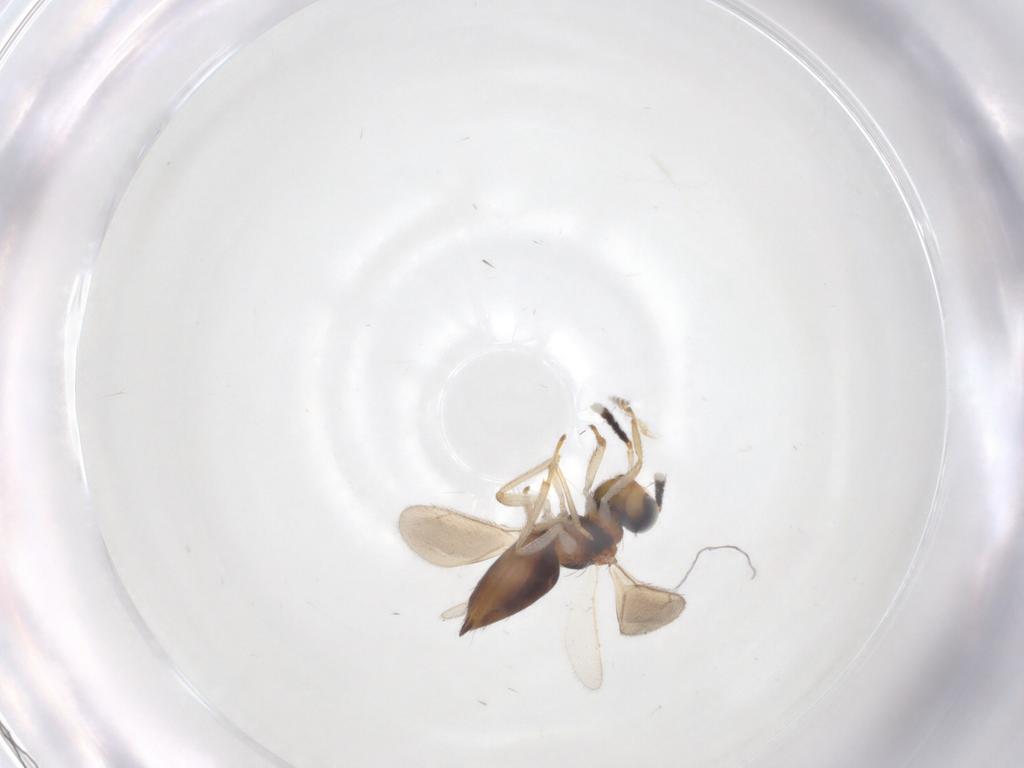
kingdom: Animalia
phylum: Arthropoda
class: Insecta
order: Hymenoptera
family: Eulophidae
